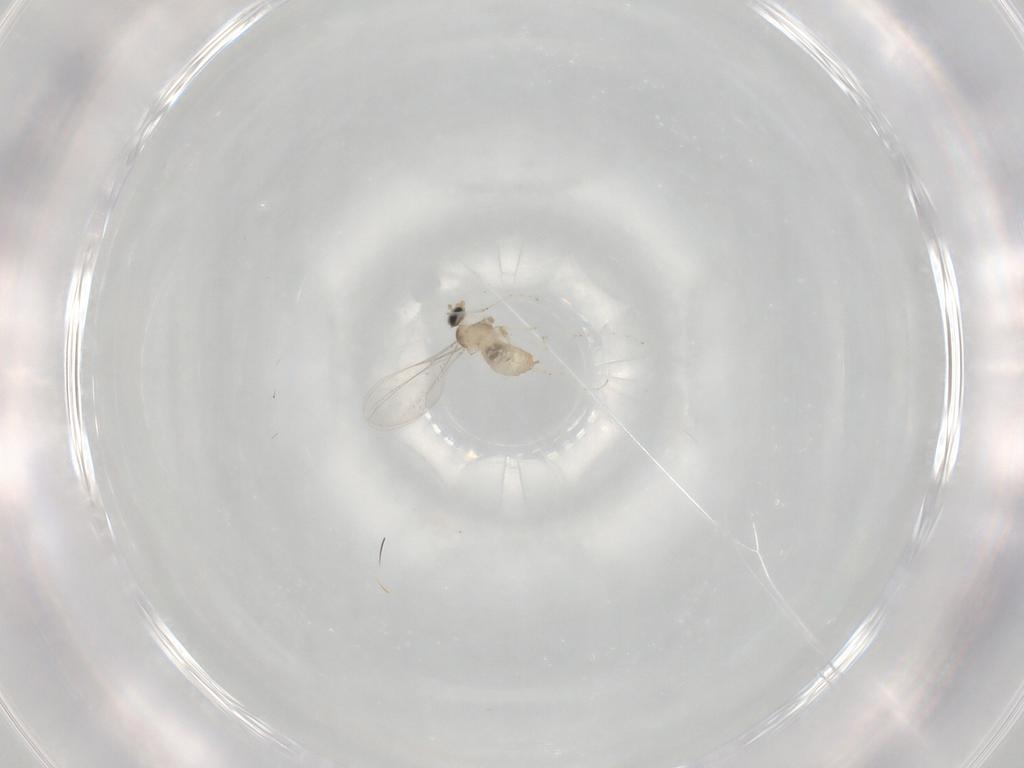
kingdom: Animalia
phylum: Arthropoda
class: Insecta
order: Diptera
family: Cecidomyiidae
